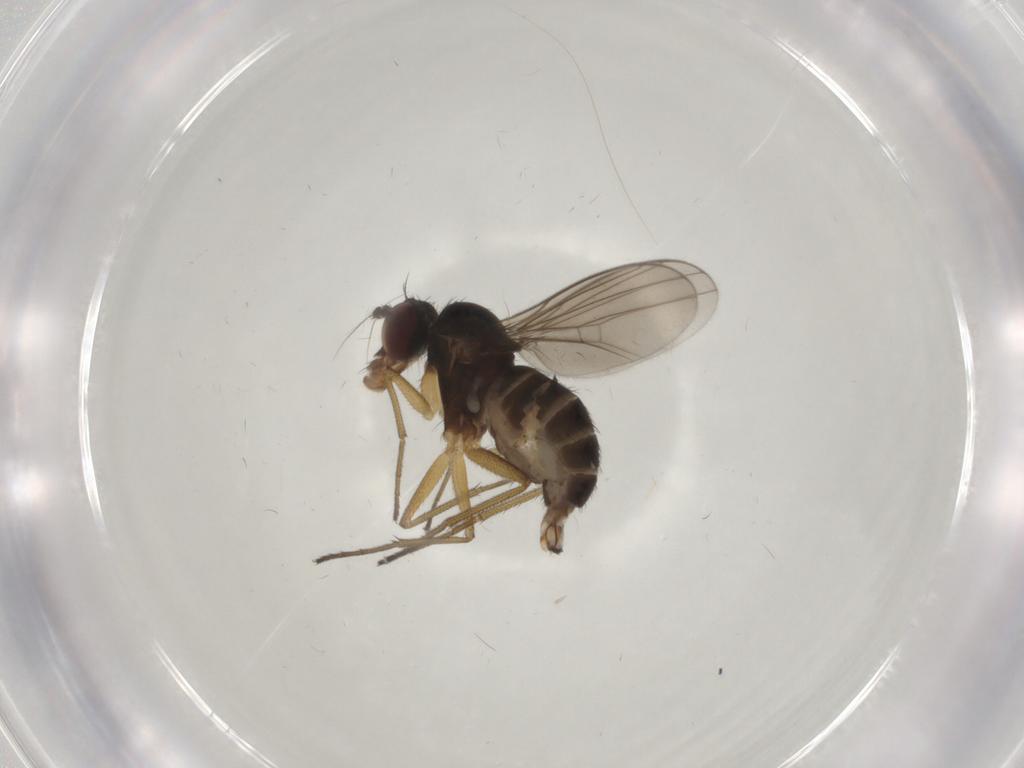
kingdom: Animalia
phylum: Arthropoda
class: Insecta
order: Diptera
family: Dolichopodidae
